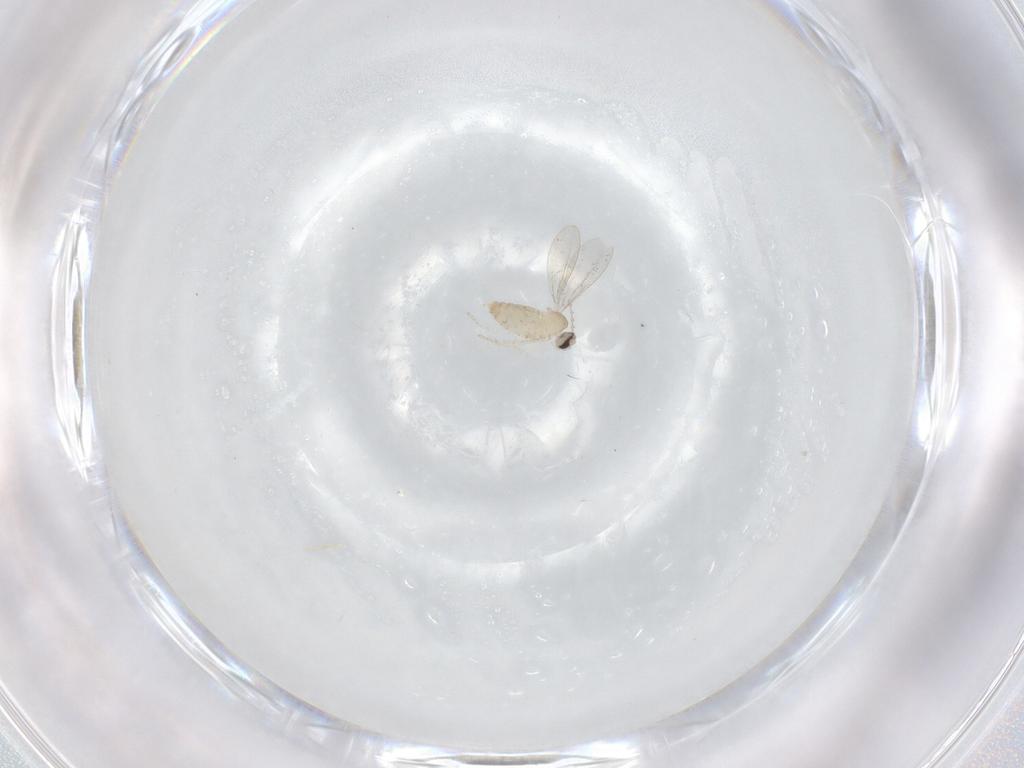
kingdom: Animalia
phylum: Arthropoda
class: Insecta
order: Diptera
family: Cecidomyiidae
